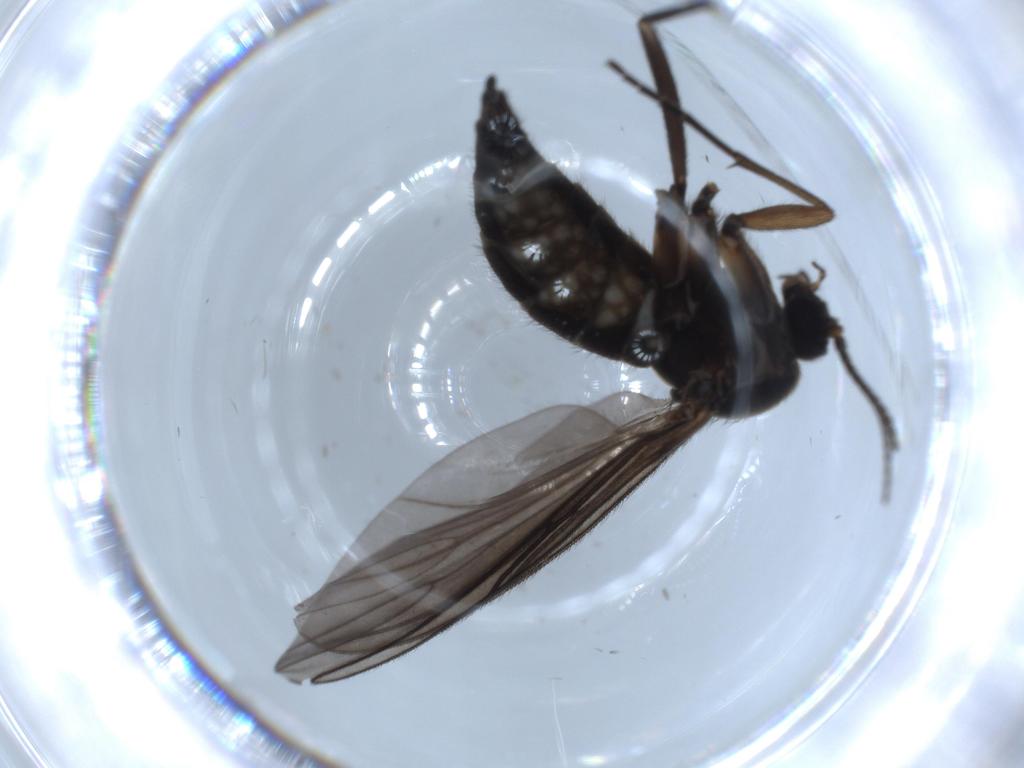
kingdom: Animalia
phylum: Arthropoda
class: Insecta
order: Diptera
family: Sciaridae
